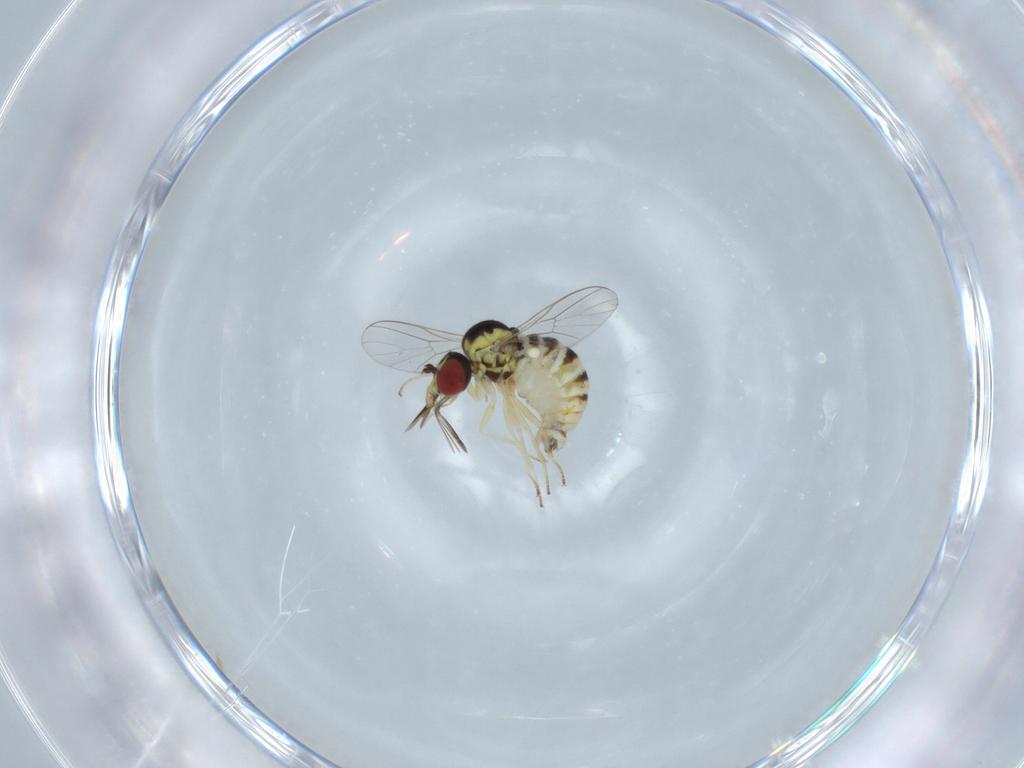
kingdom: Animalia
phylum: Arthropoda
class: Insecta
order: Diptera
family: Bombyliidae
